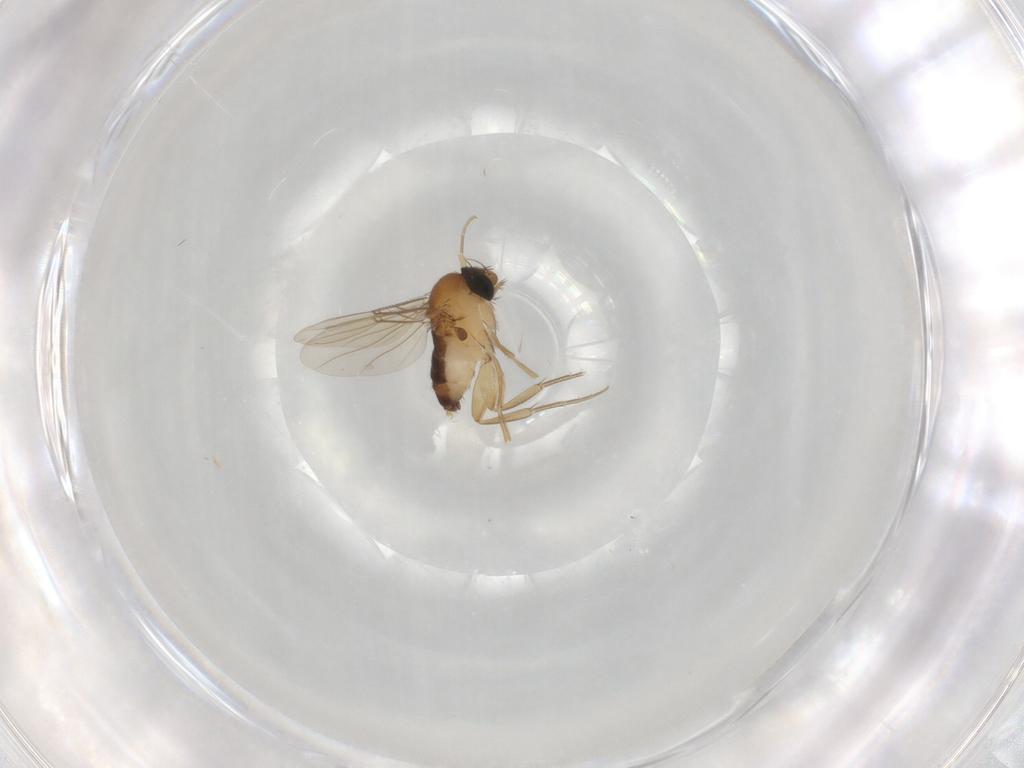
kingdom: Animalia
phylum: Arthropoda
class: Insecta
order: Diptera
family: Phoridae
